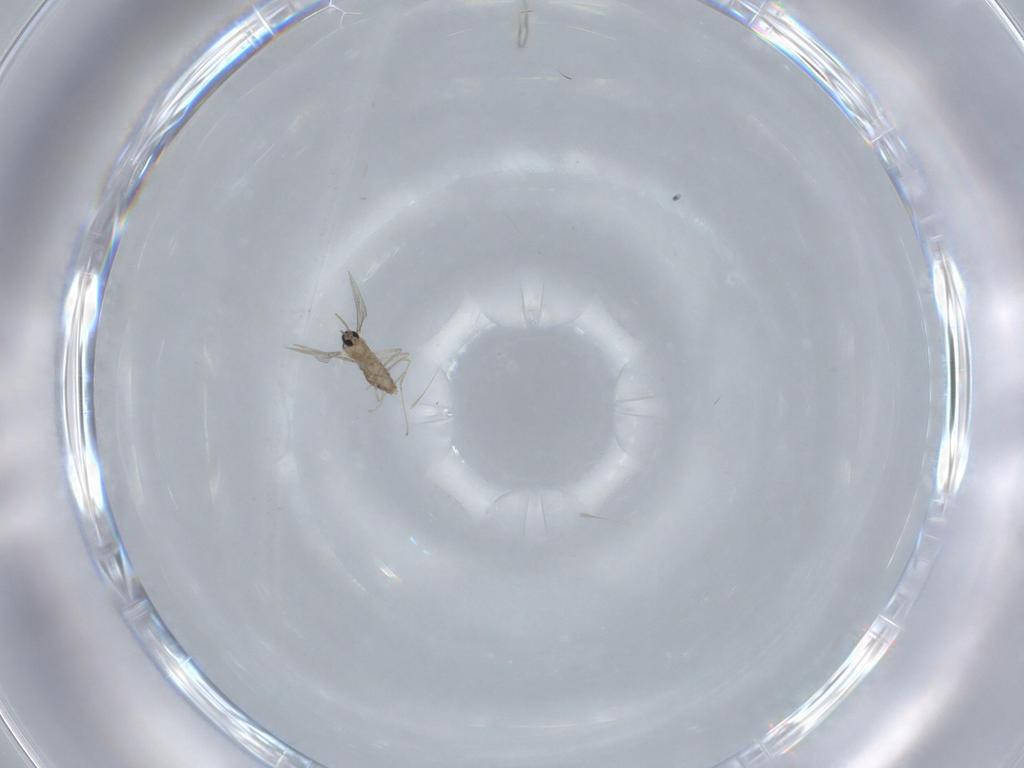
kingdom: Animalia
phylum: Arthropoda
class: Insecta
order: Diptera
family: Cecidomyiidae
